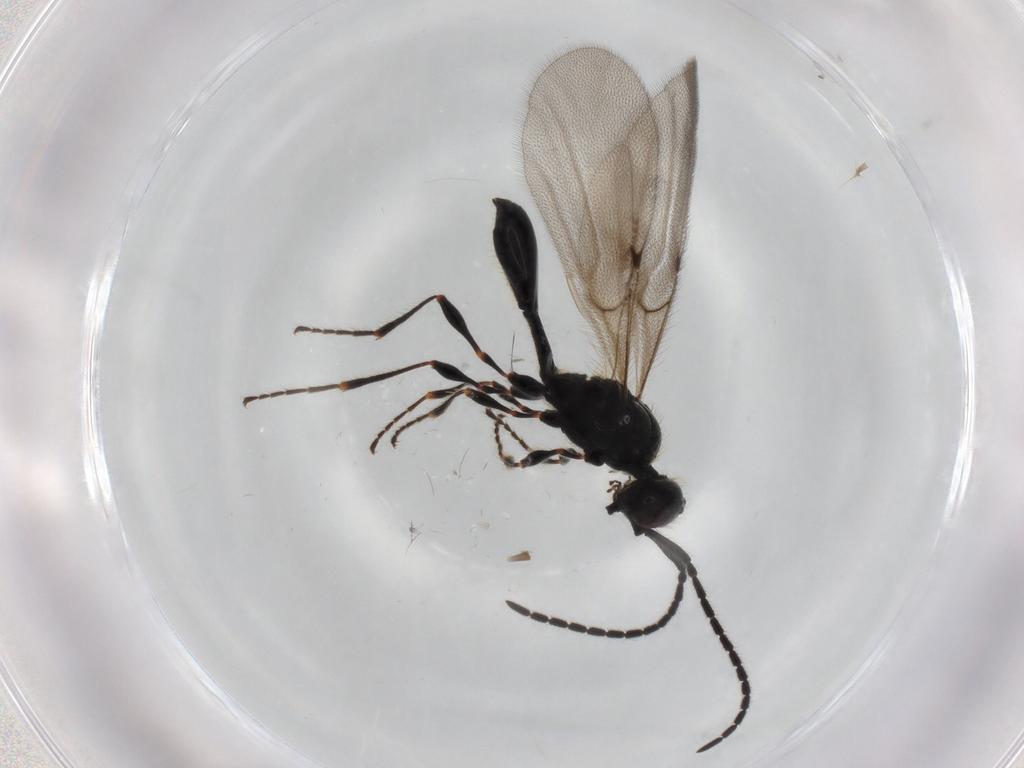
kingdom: Animalia
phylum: Arthropoda
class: Insecta
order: Hymenoptera
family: Diapriidae
